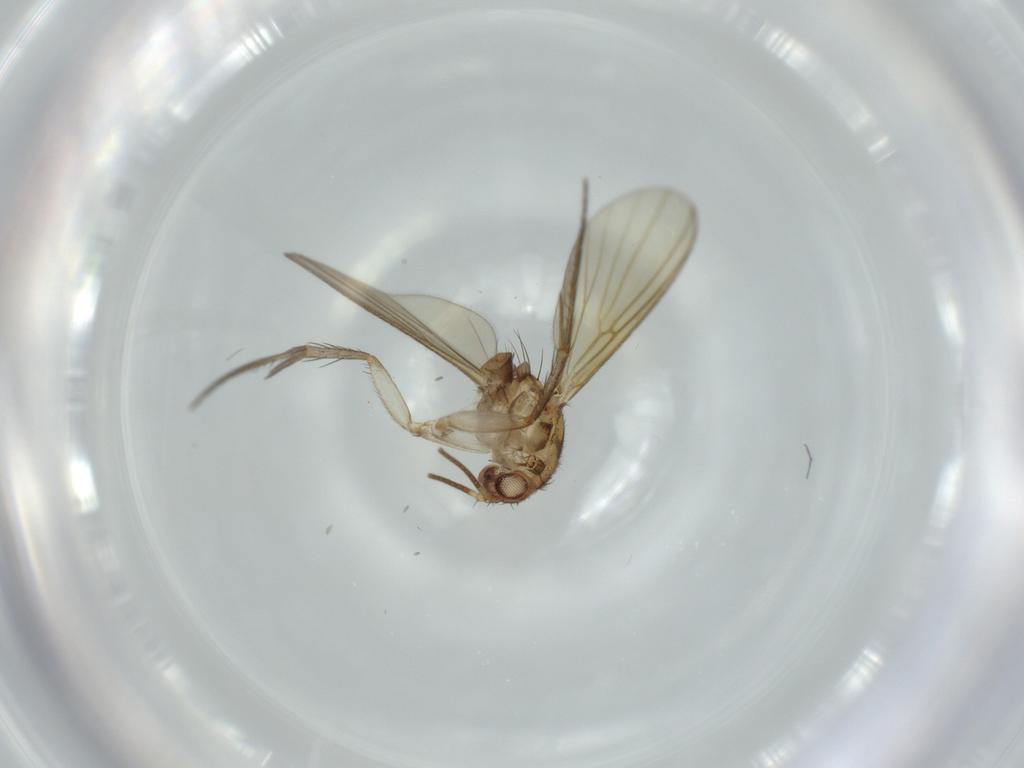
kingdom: Animalia
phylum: Arthropoda
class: Insecta
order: Diptera
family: Mycetophilidae
